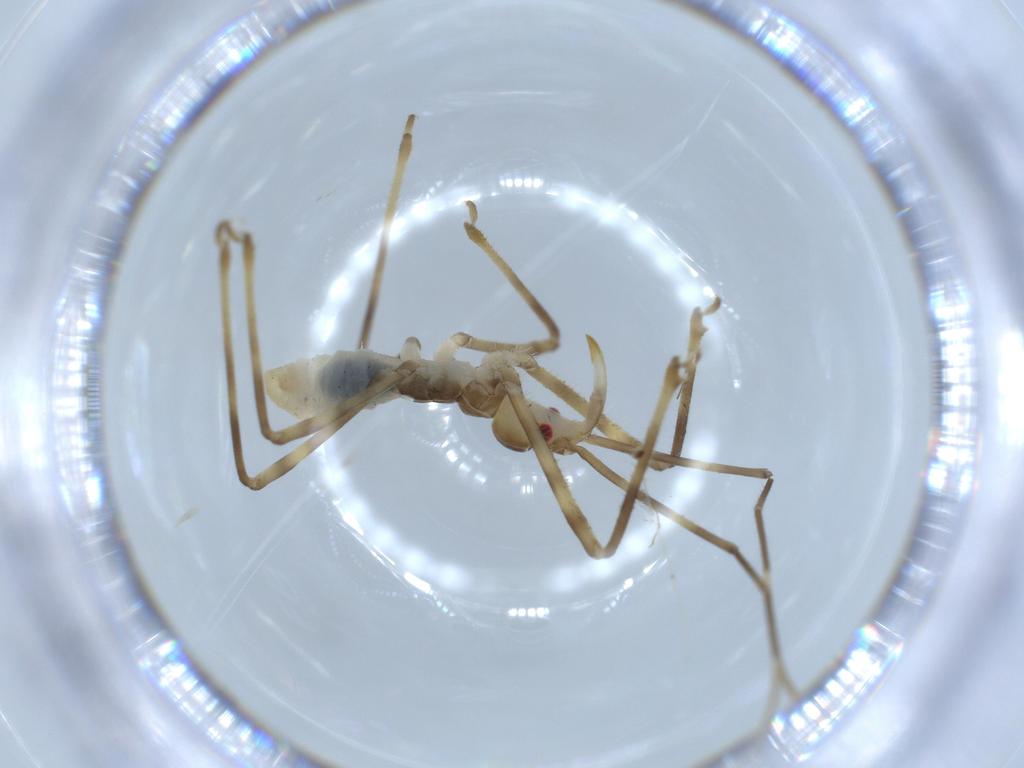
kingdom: Animalia
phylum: Arthropoda
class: Insecta
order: Hemiptera
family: Reduviidae
